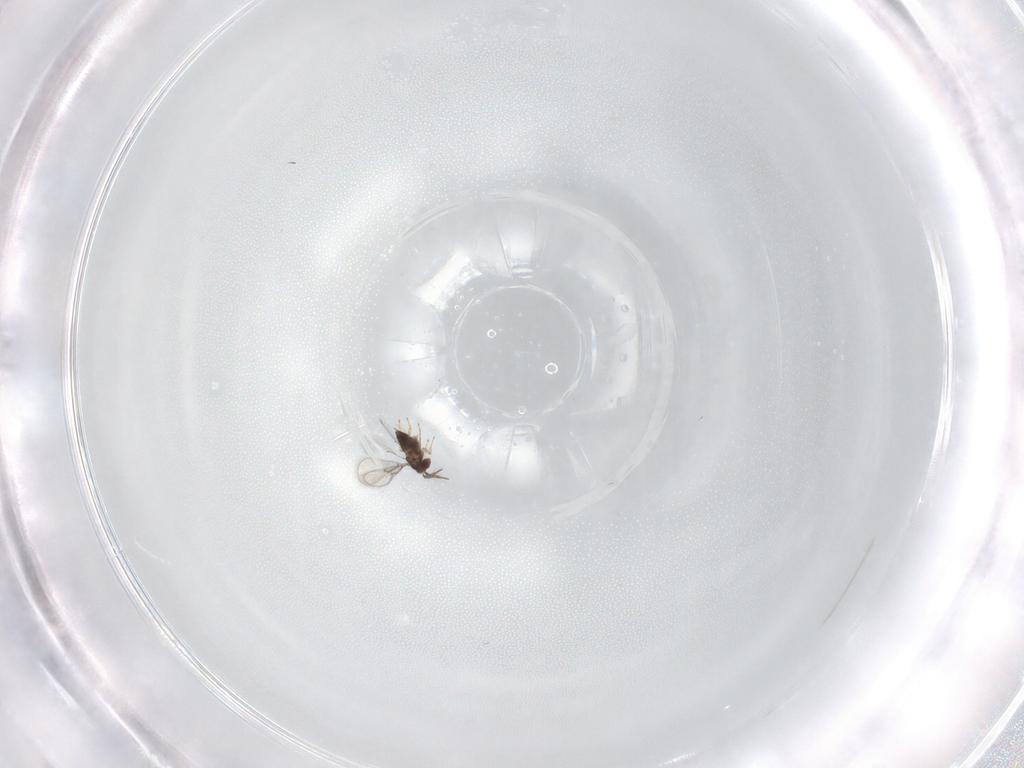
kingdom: Animalia
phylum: Arthropoda
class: Insecta
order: Hymenoptera
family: Trichogrammatidae
